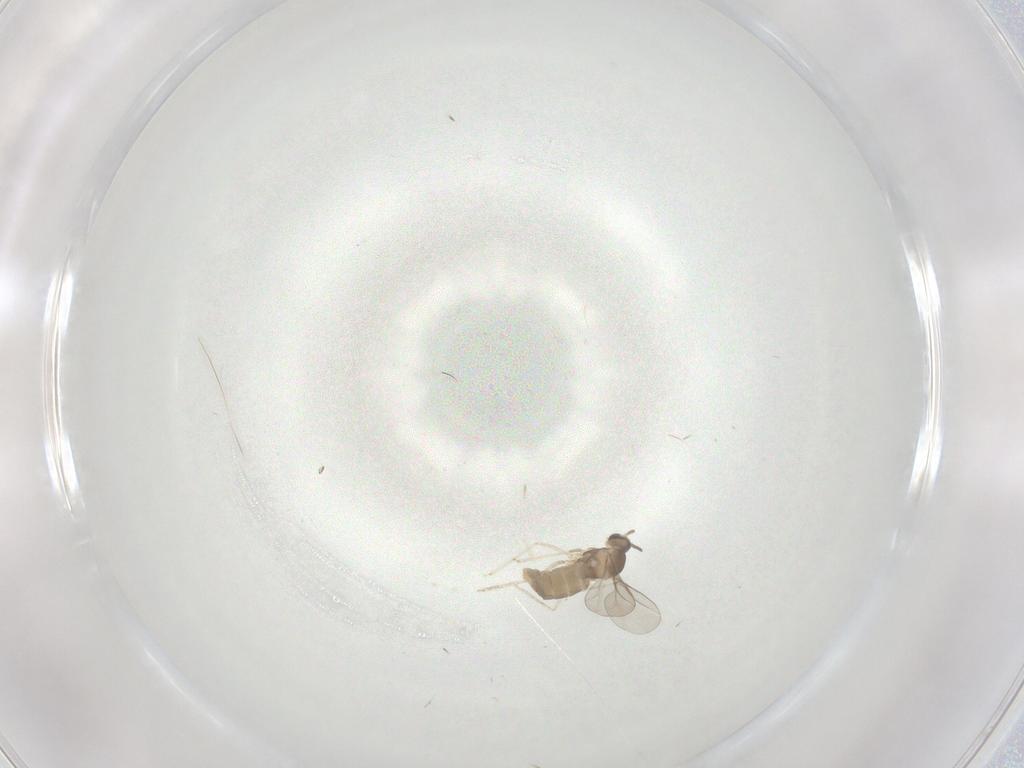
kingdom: Animalia
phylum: Arthropoda
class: Insecta
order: Diptera
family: Cecidomyiidae
